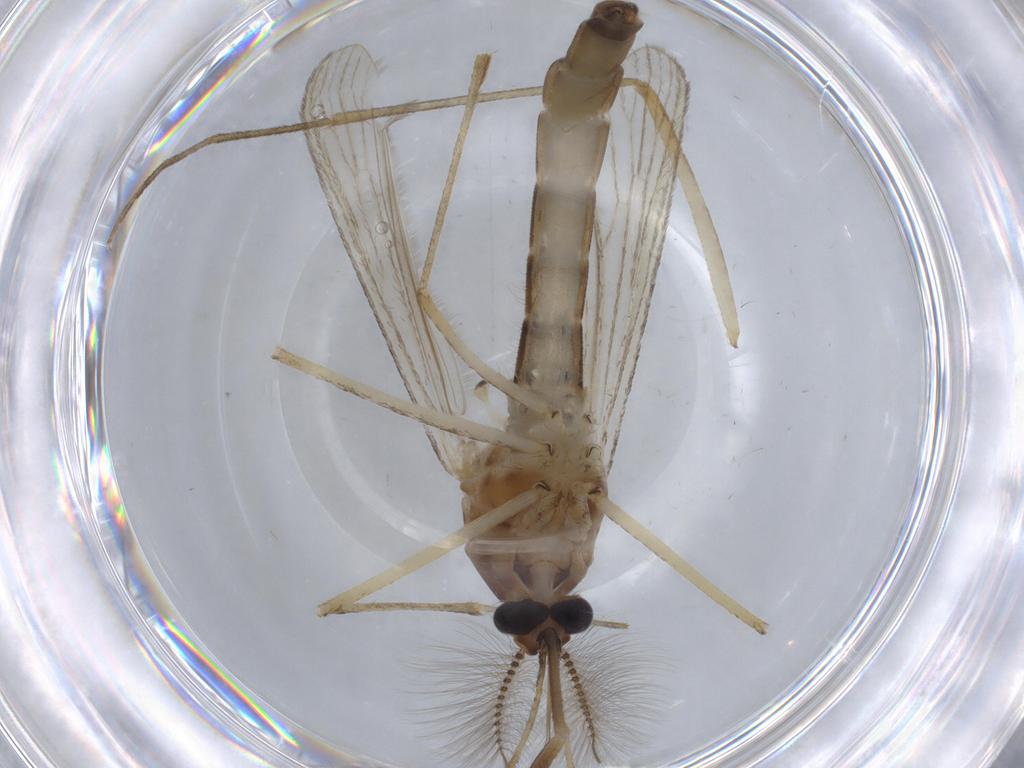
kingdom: Animalia
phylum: Arthropoda
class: Insecta
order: Diptera
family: Culicidae
